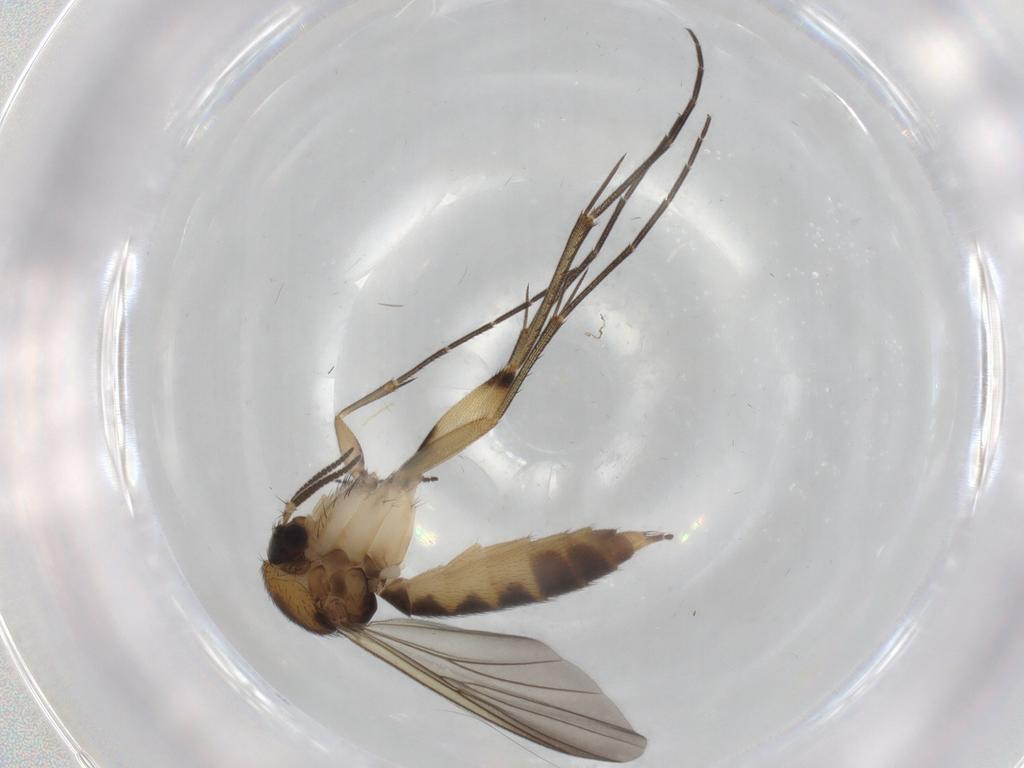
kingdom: Animalia
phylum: Arthropoda
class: Insecta
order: Diptera
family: Mycetophilidae
